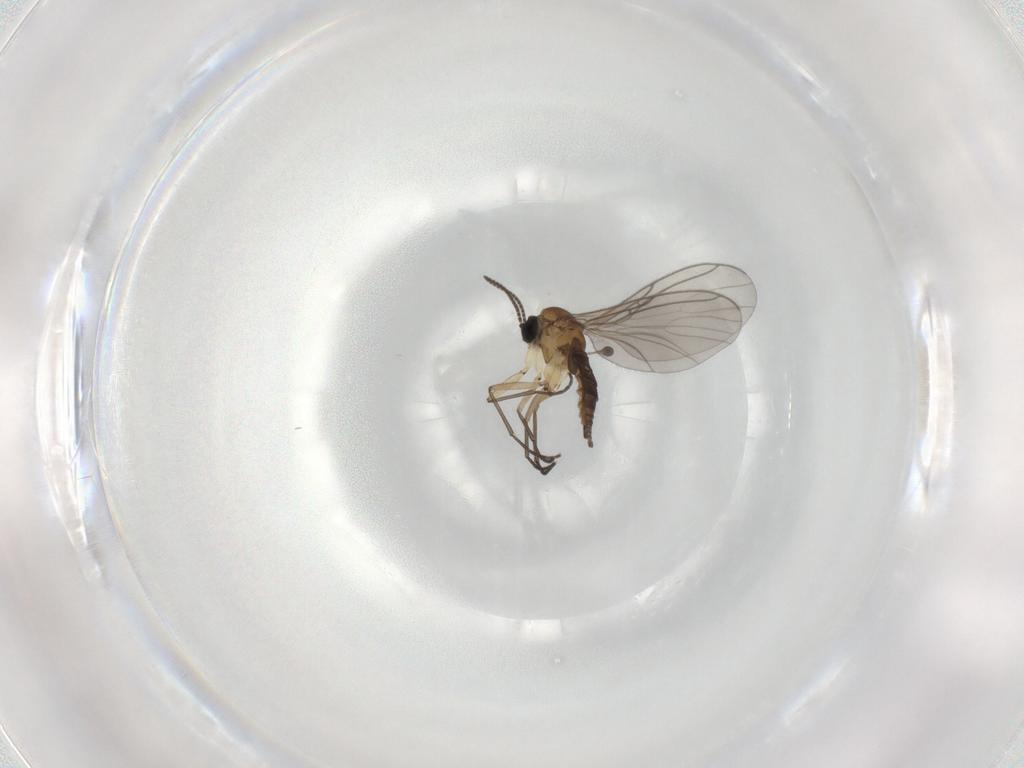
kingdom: Animalia
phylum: Arthropoda
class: Insecta
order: Diptera
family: Sciaridae
